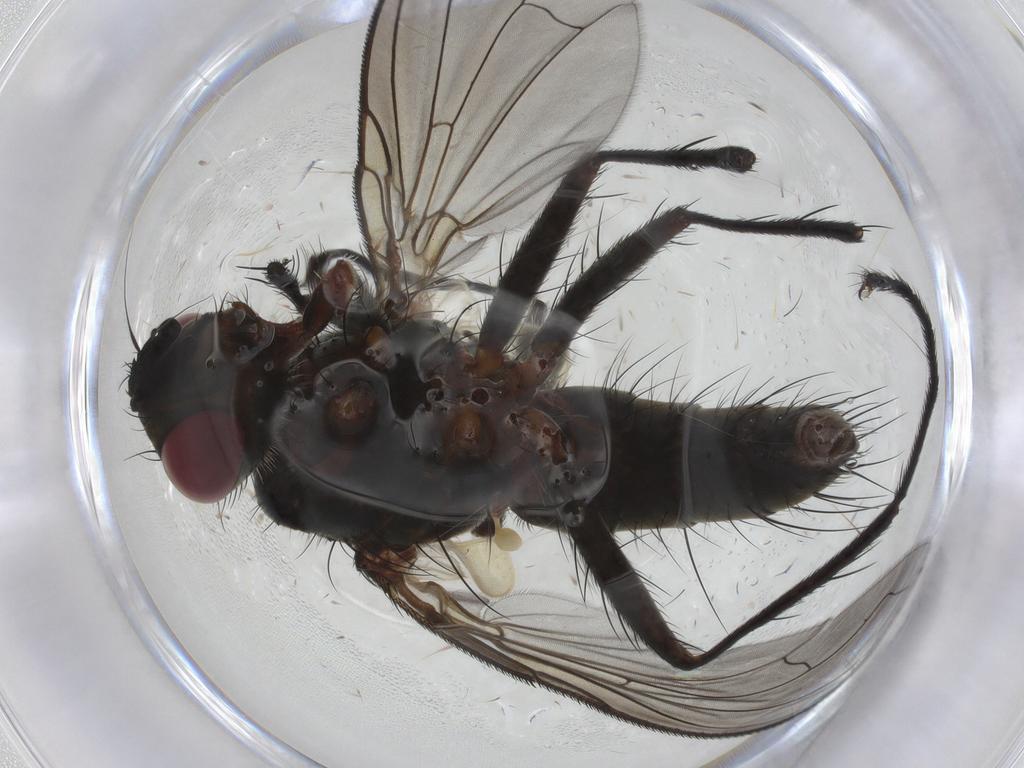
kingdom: Animalia
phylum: Arthropoda
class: Insecta
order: Diptera
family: Tachinidae
